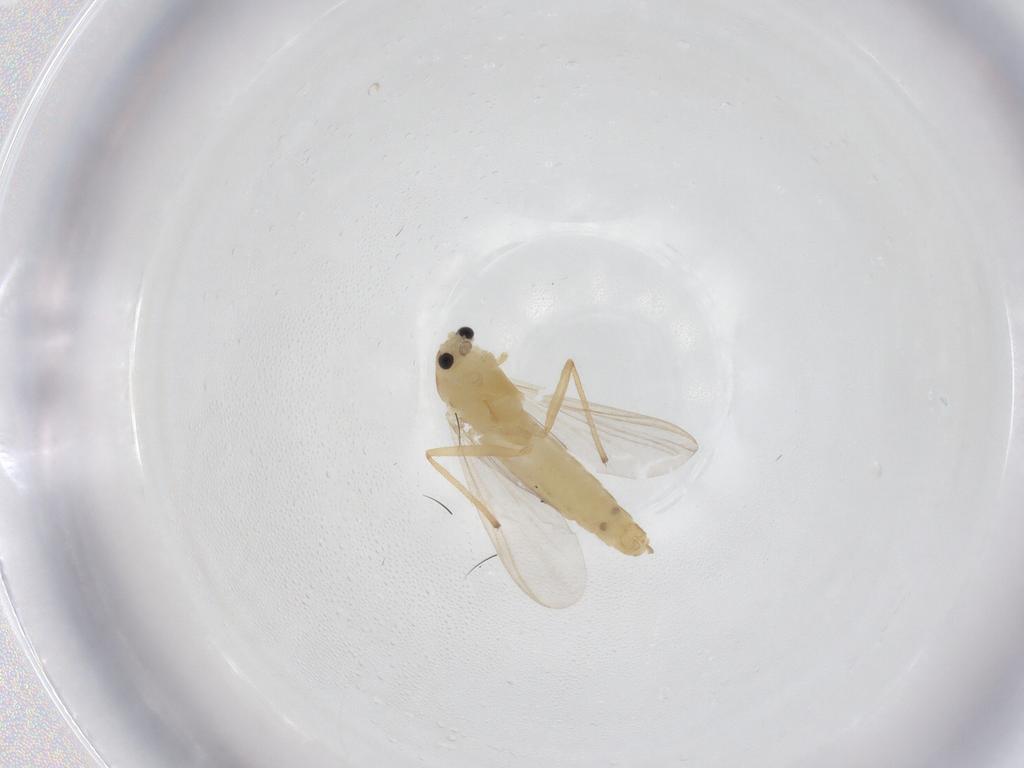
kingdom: Animalia
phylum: Arthropoda
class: Insecta
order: Diptera
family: Chironomidae
